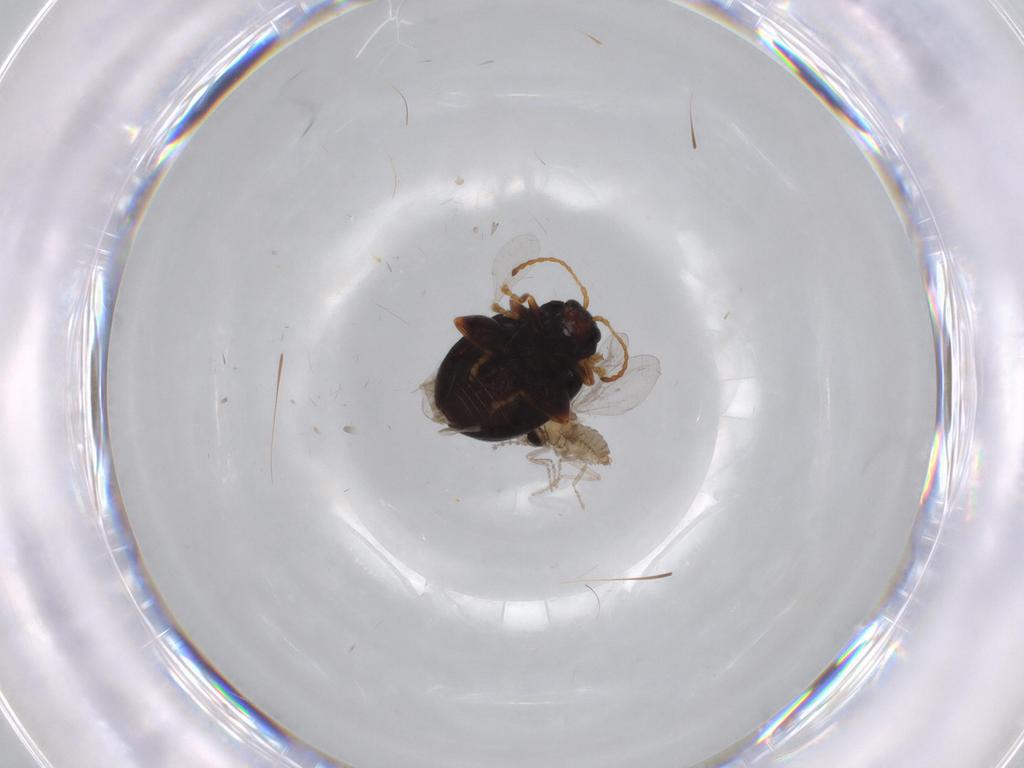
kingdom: Animalia
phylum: Arthropoda
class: Insecta
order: Diptera
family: Cecidomyiidae
